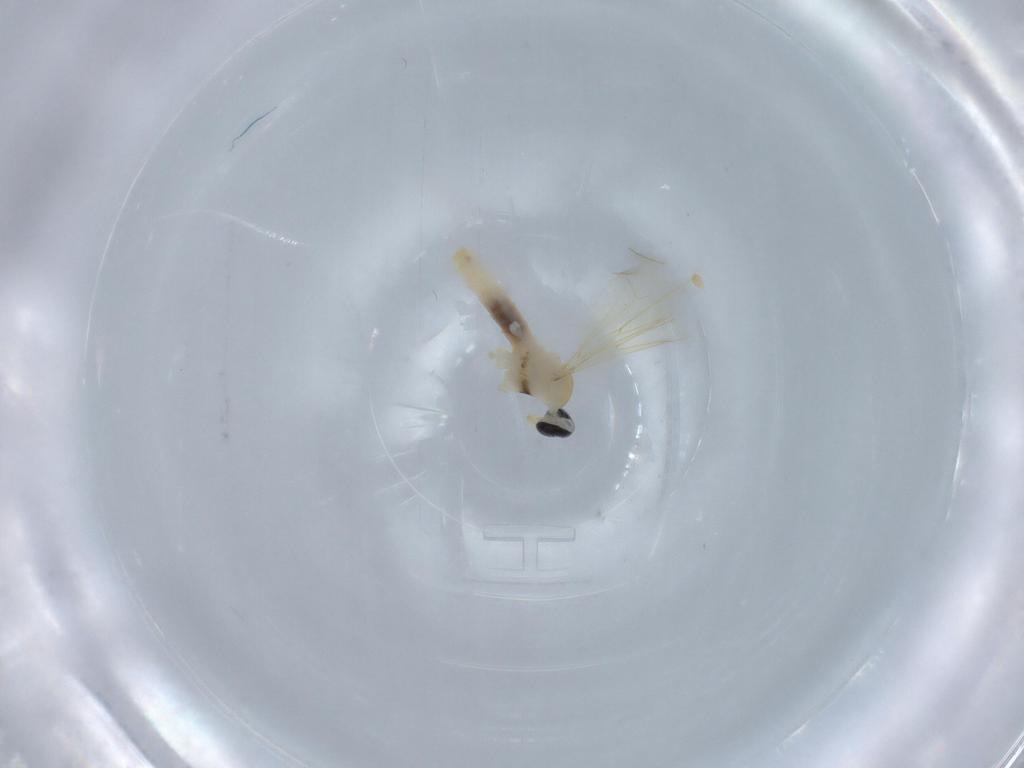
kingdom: Animalia
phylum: Arthropoda
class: Insecta
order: Diptera
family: Cecidomyiidae
